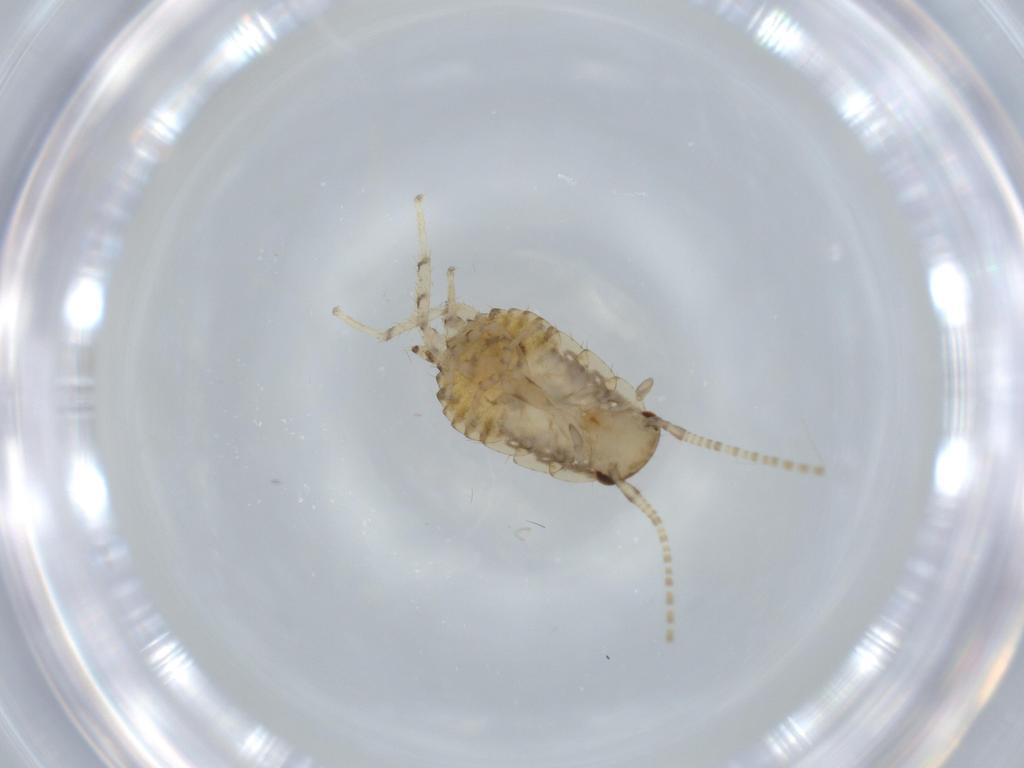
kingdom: Animalia
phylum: Arthropoda
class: Insecta
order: Blattodea
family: Ectobiidae
